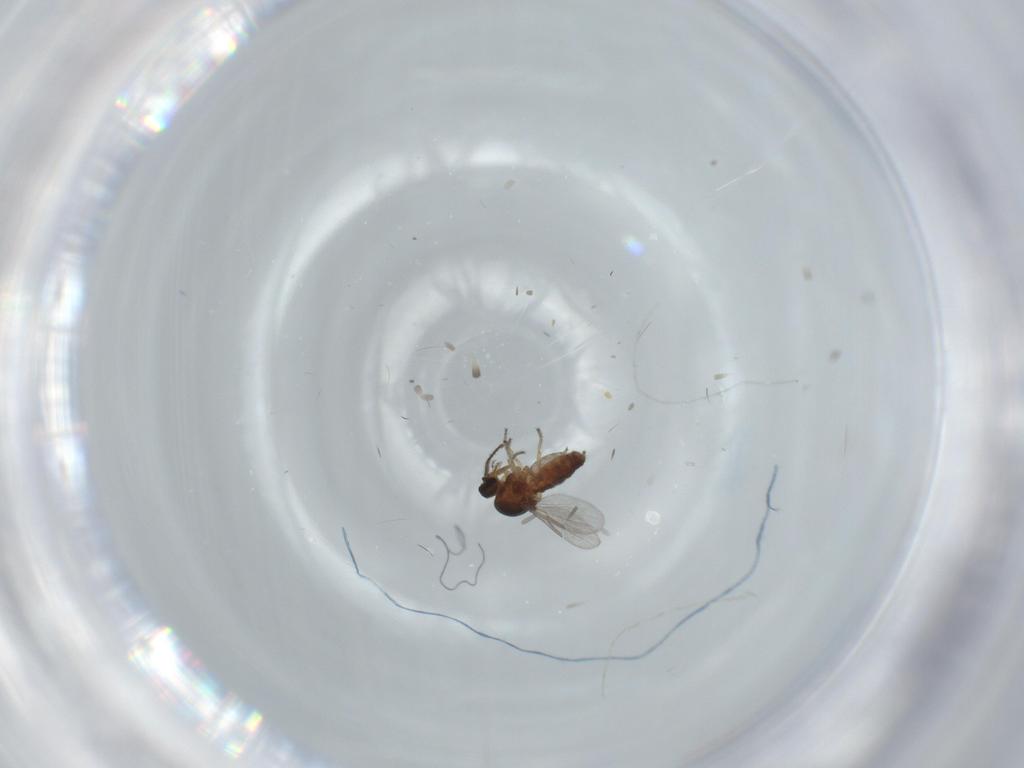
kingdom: Animalia
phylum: Arthropoda
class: Insecta
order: Diptera
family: Ceratopogonidae
